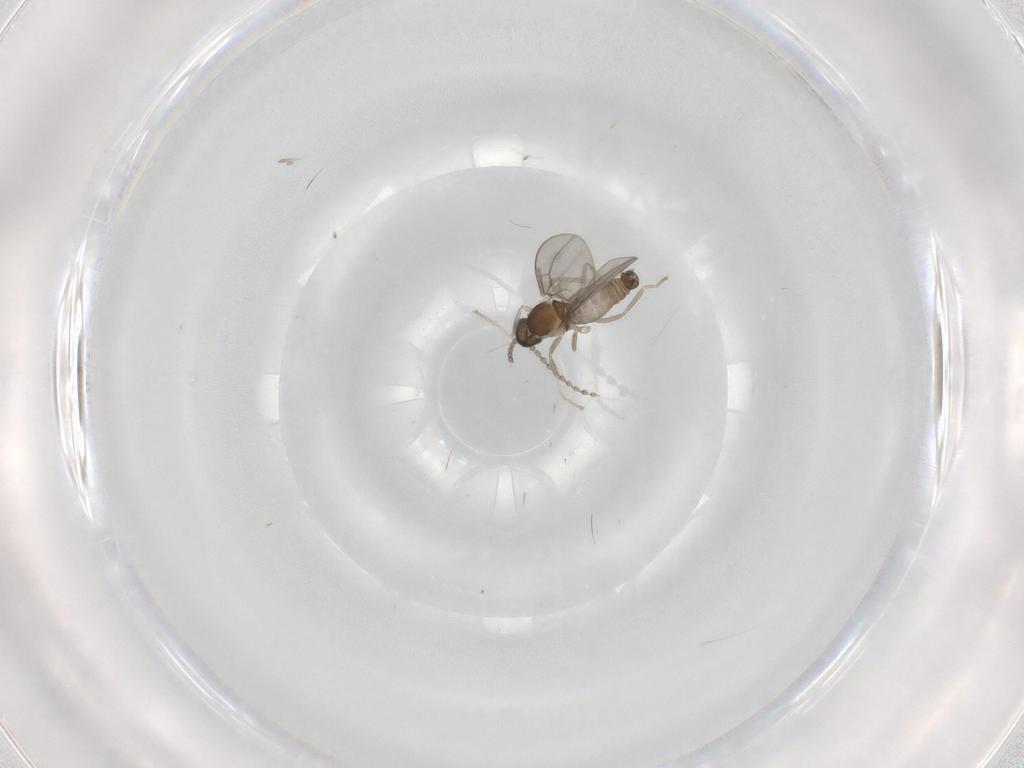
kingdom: Animalia
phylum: Arthropoda
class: Insecta
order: Diptera
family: Cecidomyiidae
